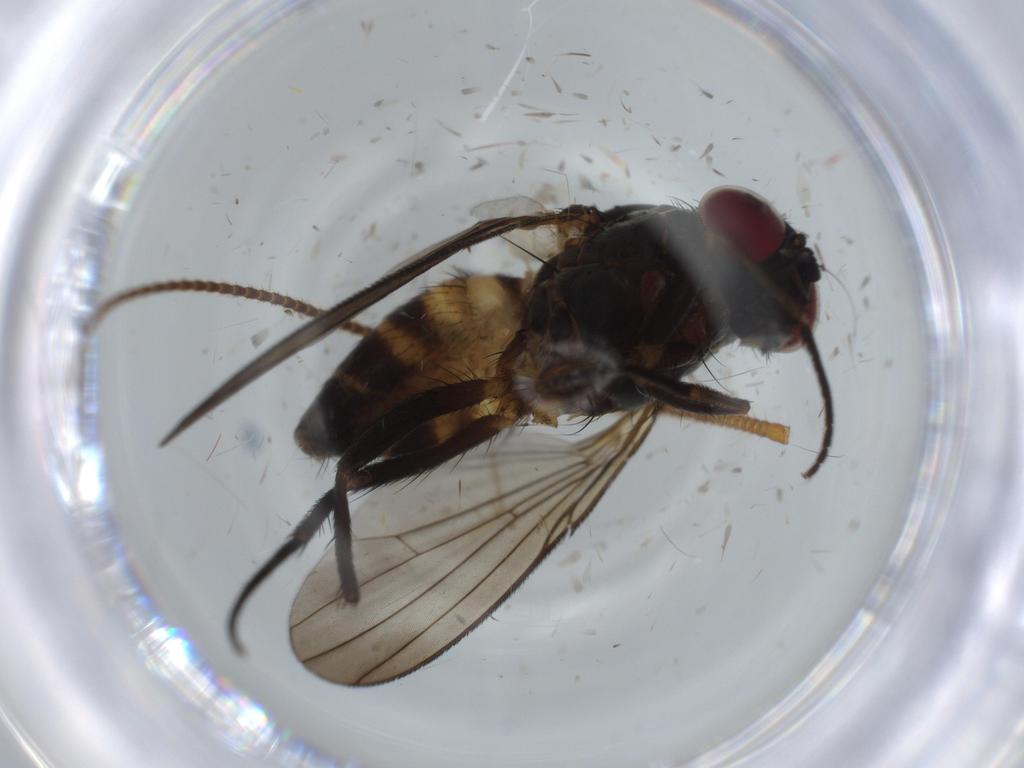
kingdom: Animalia
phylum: Arthropoda
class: Insecta
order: Diptera
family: Muscidae
